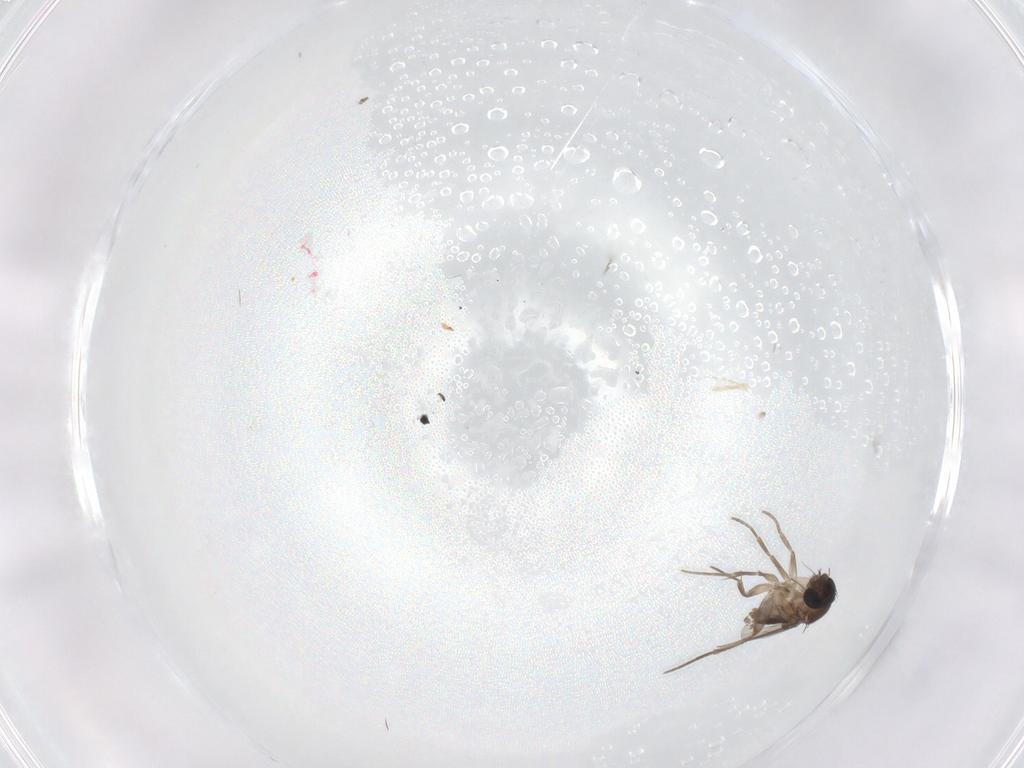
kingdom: Animalia
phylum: Arthropoda
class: Insecta
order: Diptera
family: Phoridae
